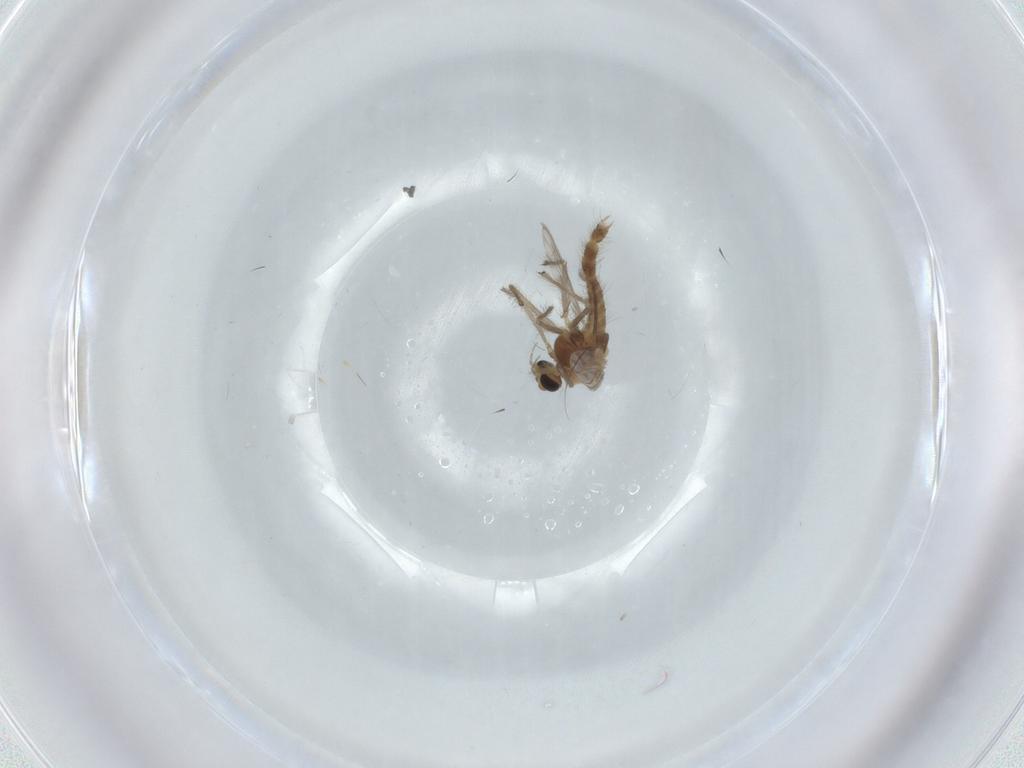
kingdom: Animalia
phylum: Arthropoda
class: Insecta
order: Diptera
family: Chironomidae
